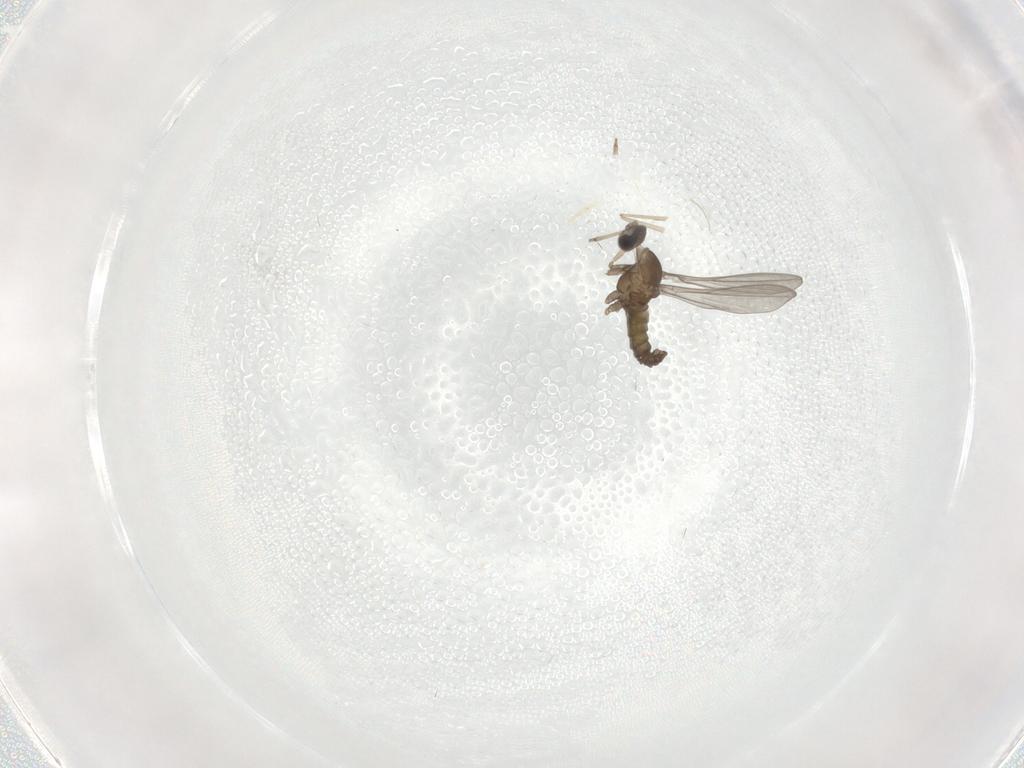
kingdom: Animalia
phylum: Arthropoda
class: Insecta
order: Diptera
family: Cecidomyiidae
